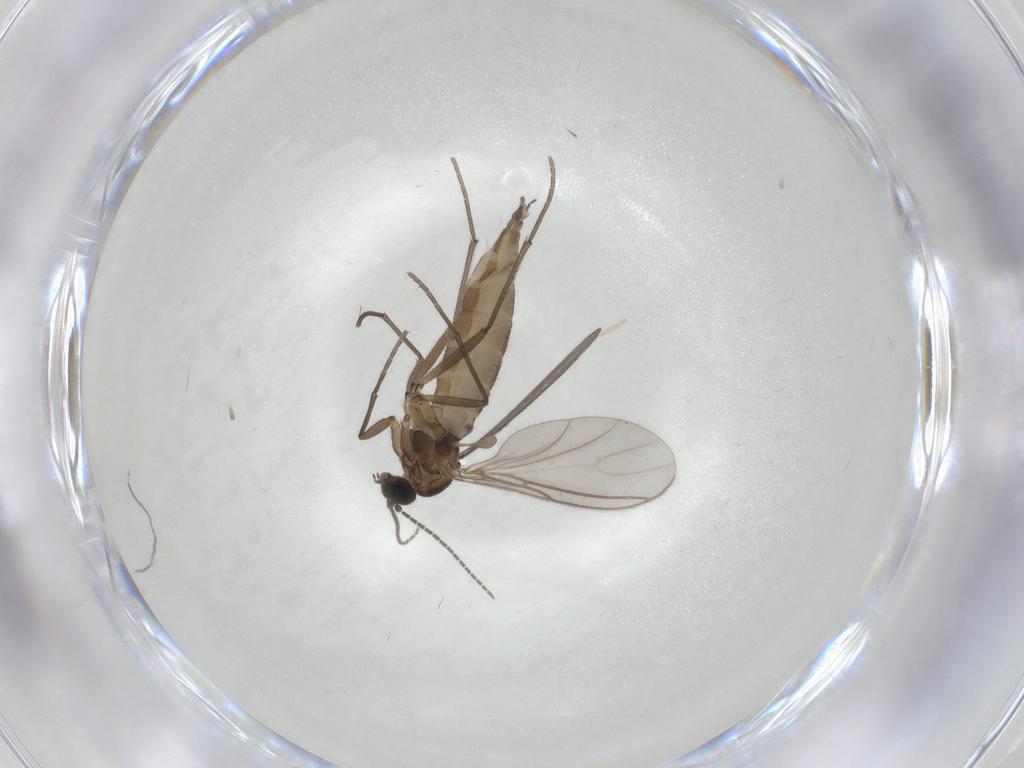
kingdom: Animalia
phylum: Arthropoda
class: Insecta
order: Diptera
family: Sciaridae
